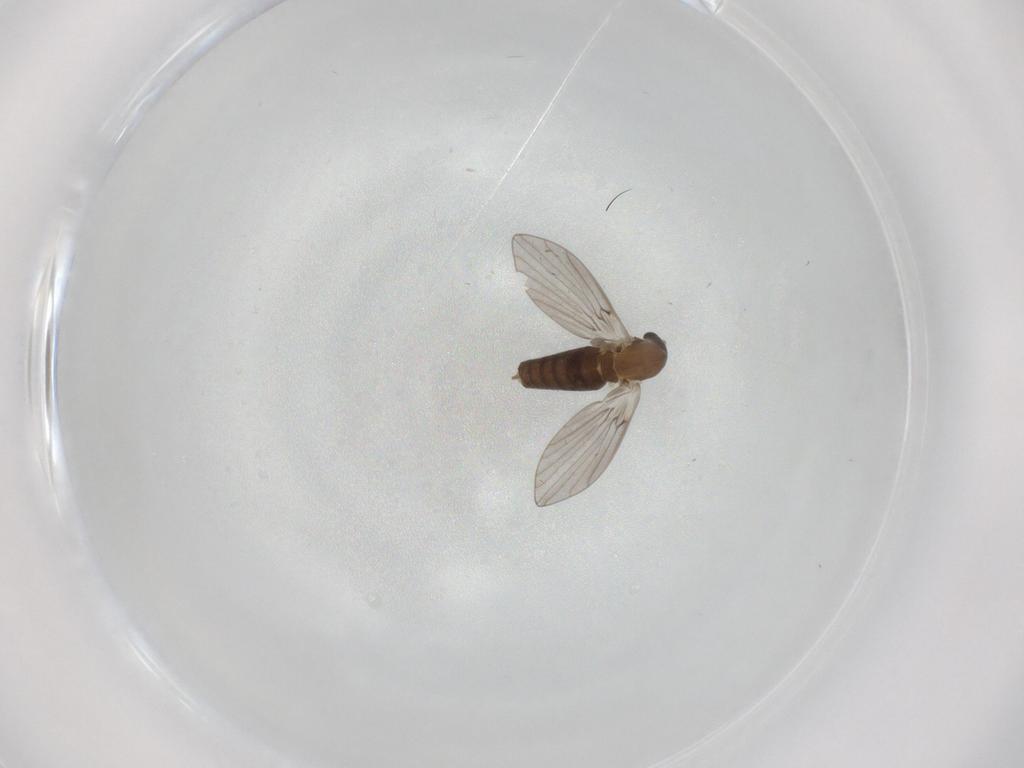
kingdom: Animalia
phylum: Arthropoda
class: Insecta
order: Diptera
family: Psychodidae
